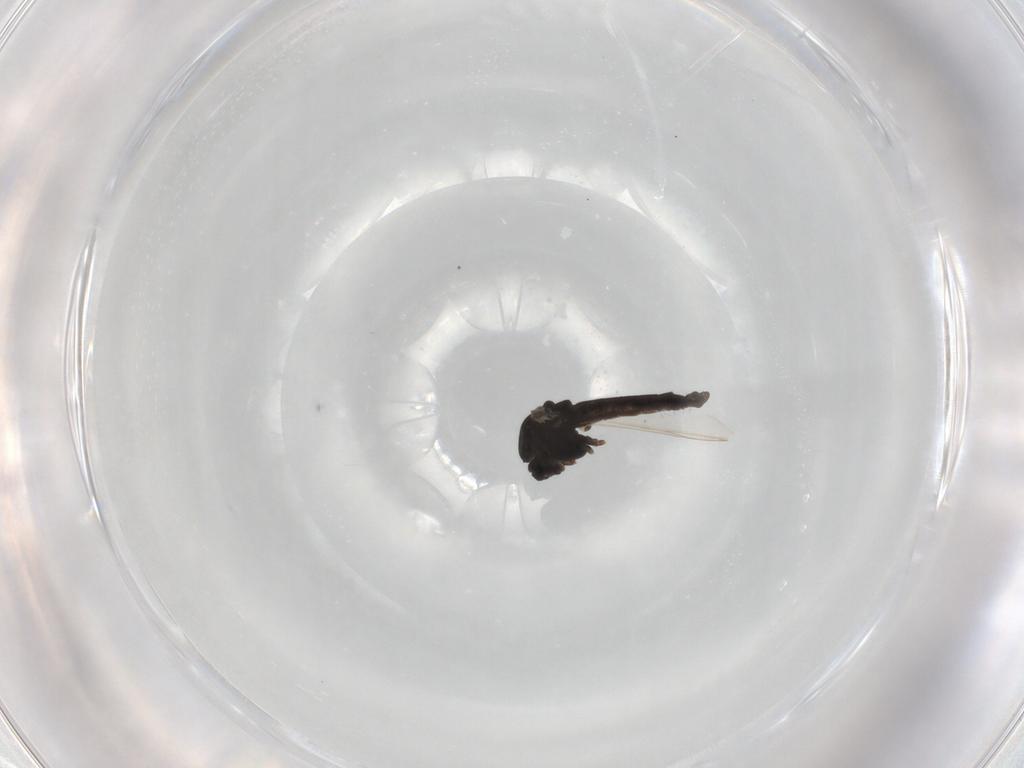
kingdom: Animalia
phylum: Arthropoda
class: Insecta
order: Diptera
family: Chironomidae
